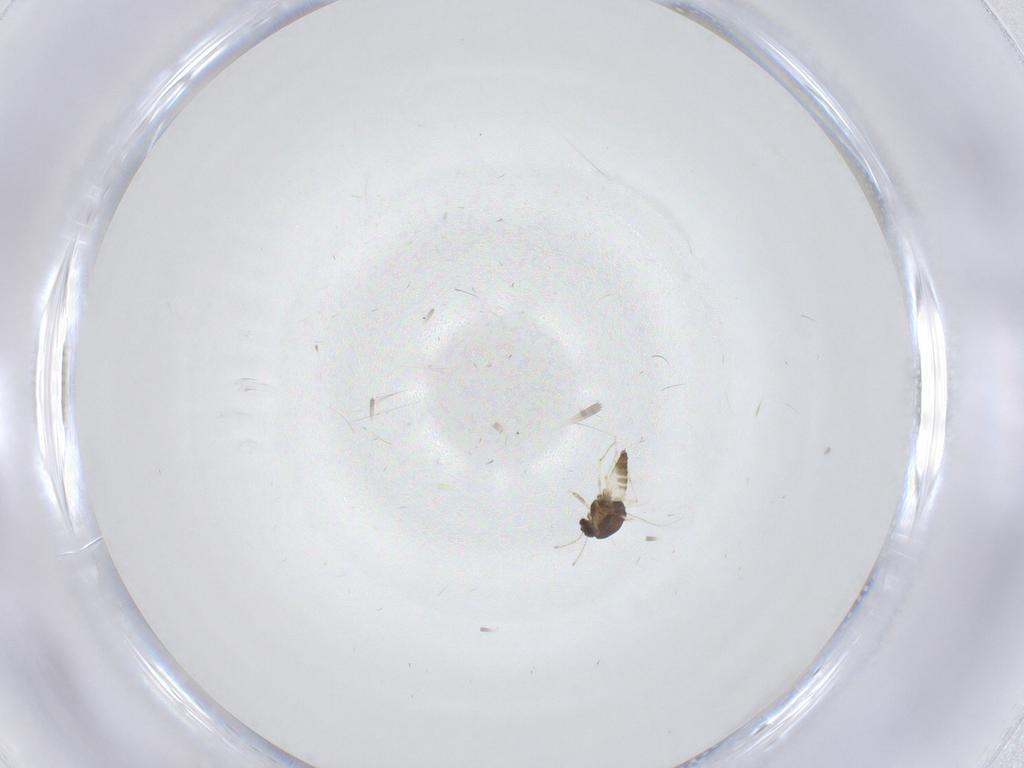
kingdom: Animalia
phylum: Arthropoda
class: Insecta
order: Diptera
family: Chironomidae
